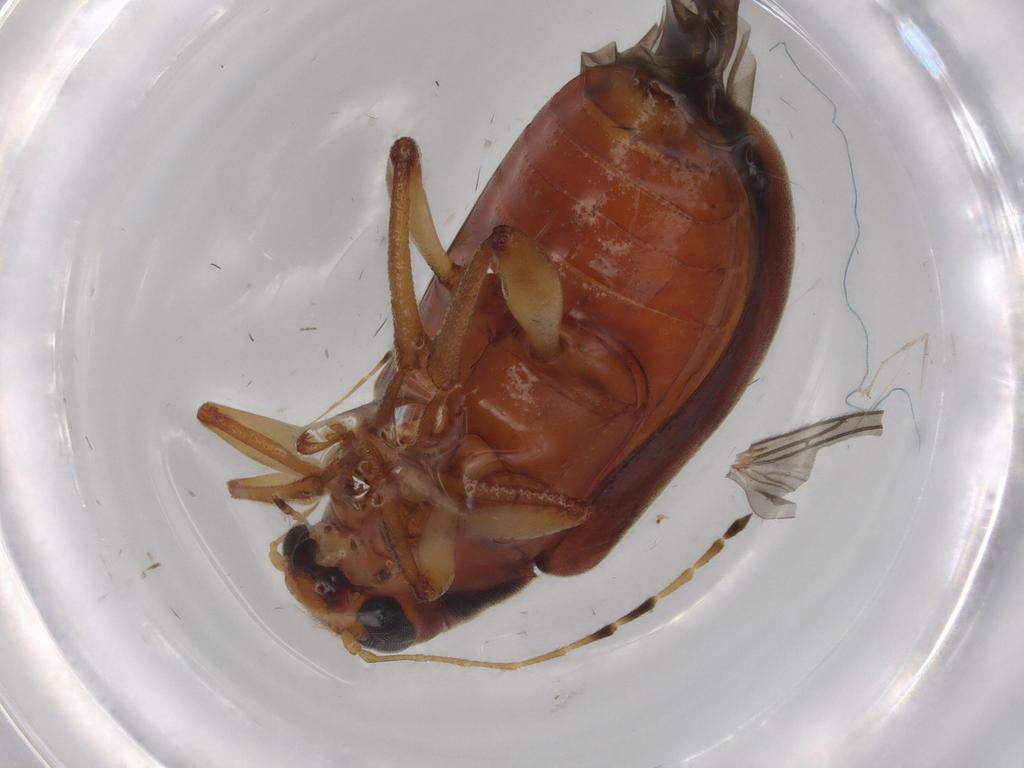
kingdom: Animalia
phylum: Arthropoda
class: Insecta
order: Coleoptera
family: Chrysomelidae
